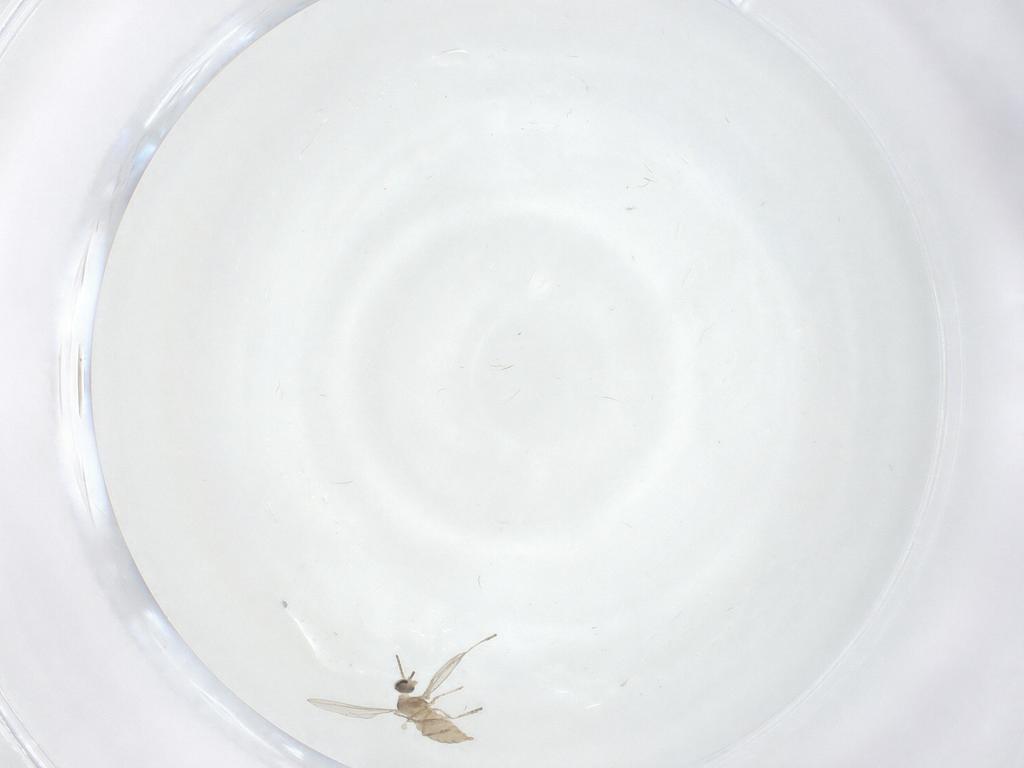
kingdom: Animalia
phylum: Arthropoda
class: Insecta
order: Diptera
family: Cecidomyiidae
